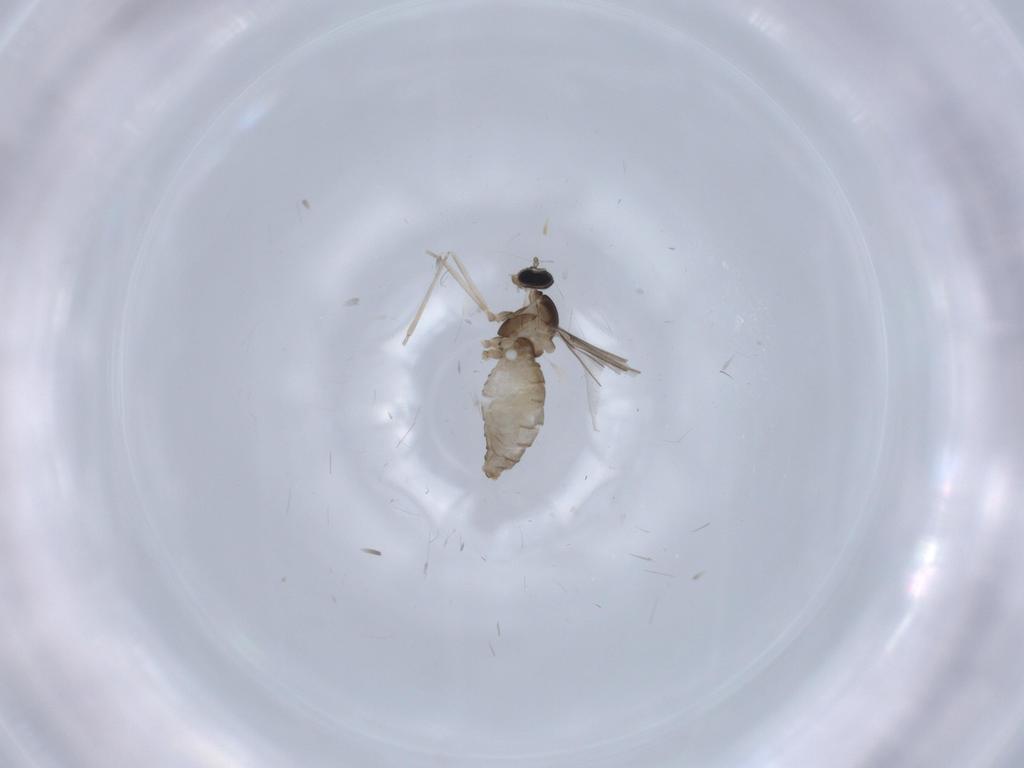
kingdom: Animalia
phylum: Arthropoda
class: Insecta
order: Diptera
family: Cecidomyiidae
